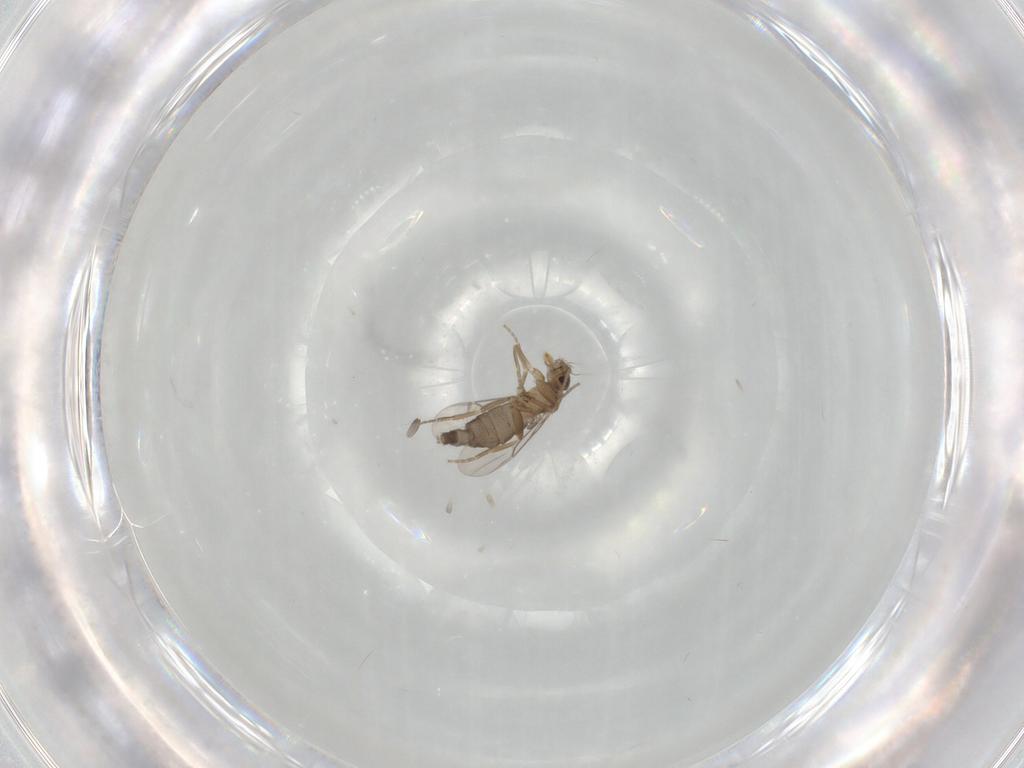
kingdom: Animalia
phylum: Arthropoda
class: Insecta
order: Diptera
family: Phoridae
